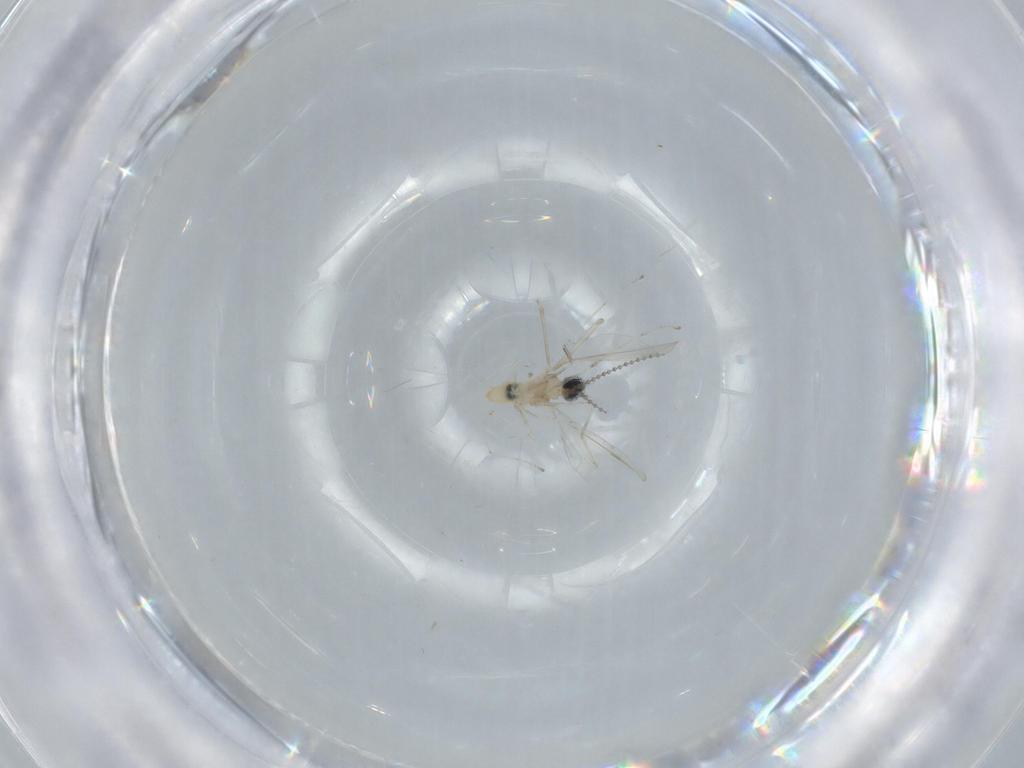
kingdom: Animalia
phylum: Arthropoda
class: Insecta
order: Diptera
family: Cecidomyiidae
